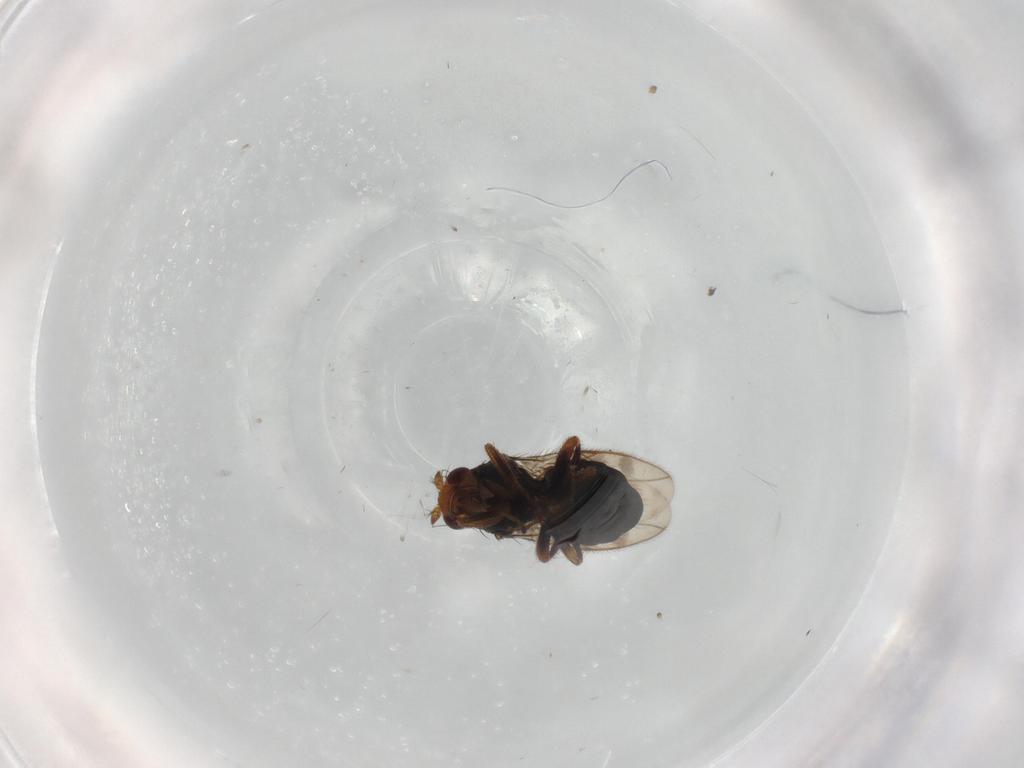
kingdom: Animalia
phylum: Arthropoda
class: Insecta
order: Diptera
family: Sphaeroceridae
